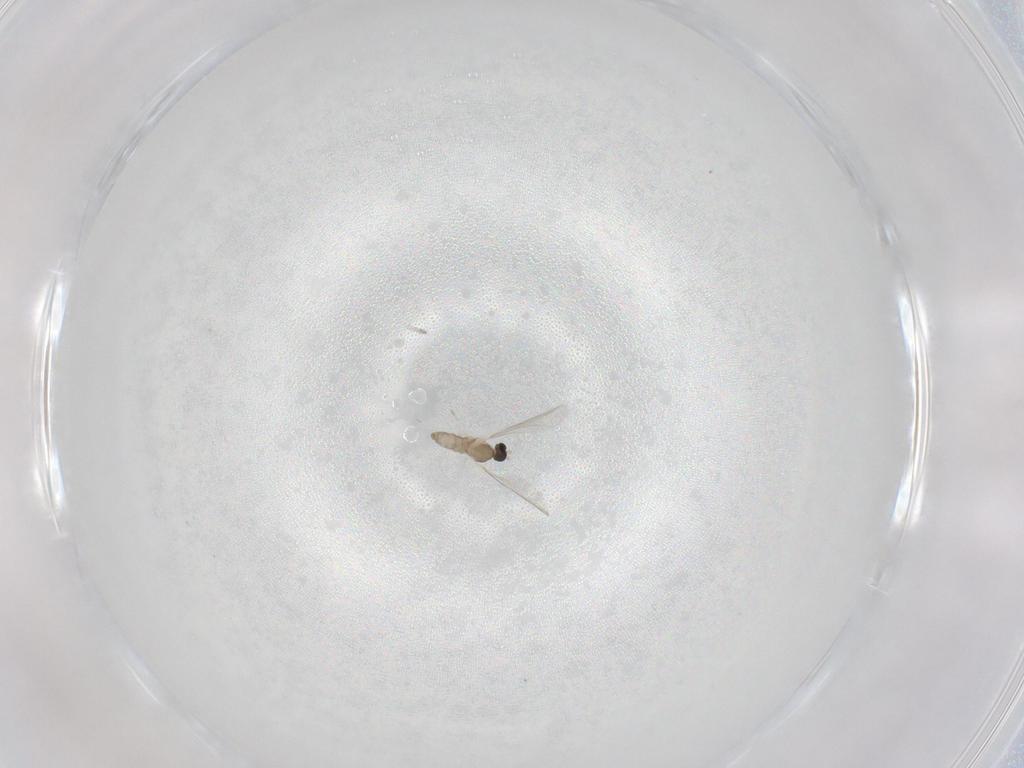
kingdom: Animalia
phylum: Arthropoda
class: Insecta
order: Diptera
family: Cecidomyiidae
